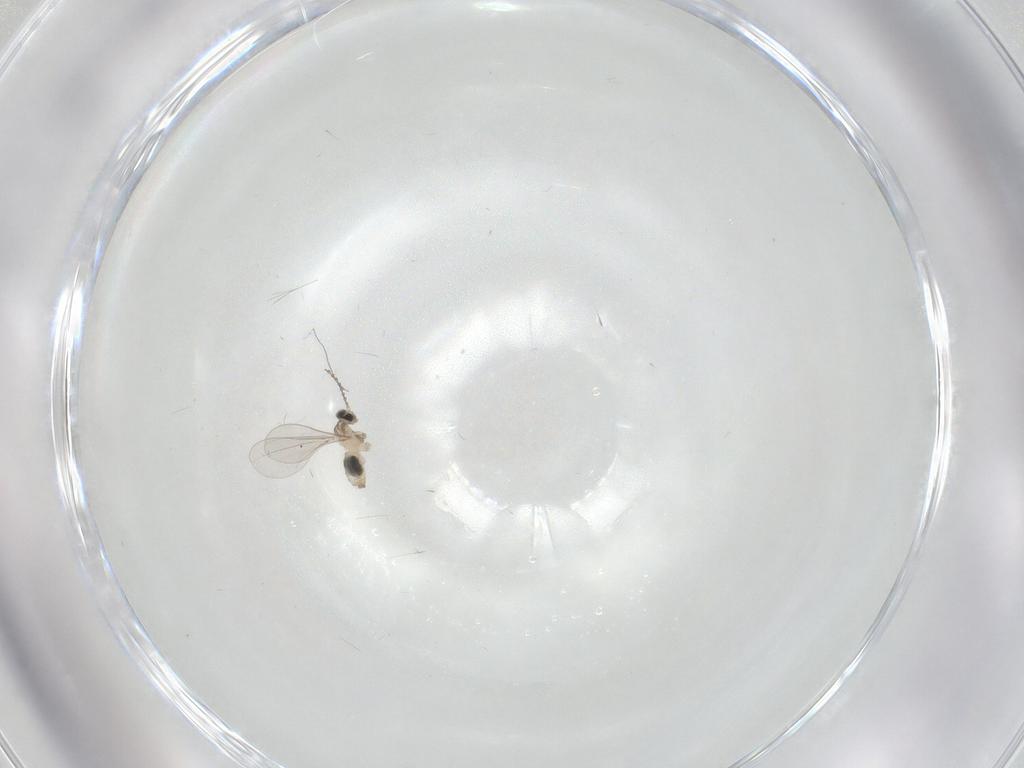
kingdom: Animalia
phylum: Arthropoda
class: Insecta
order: Diptera
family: Cecidomyiidae
